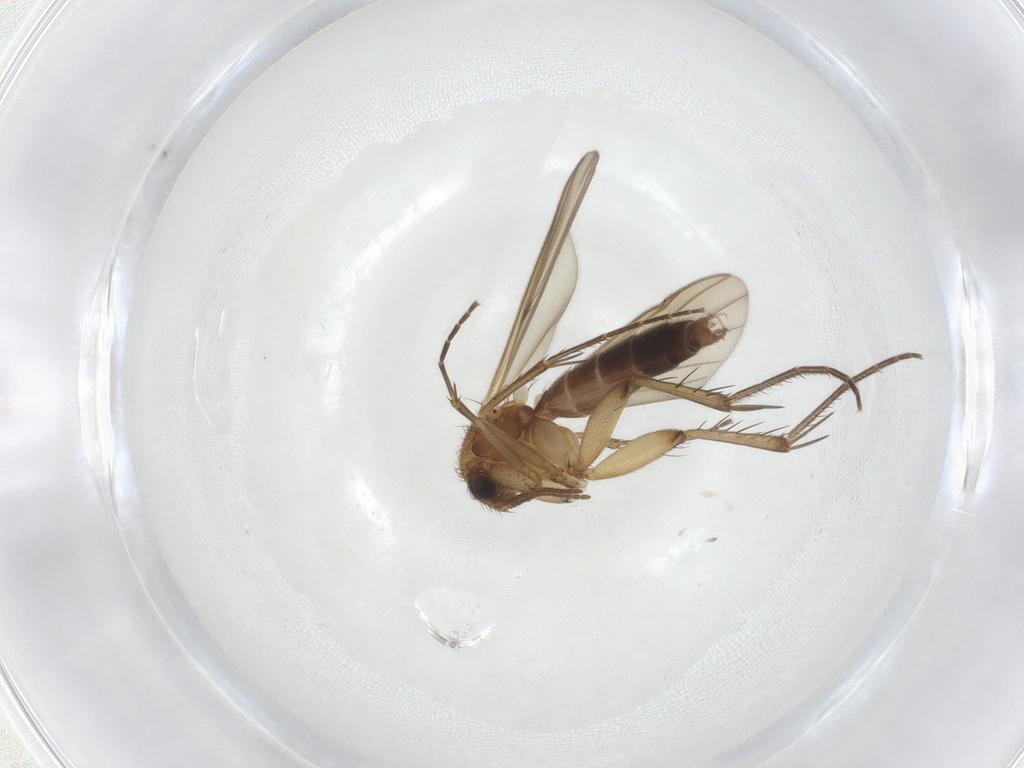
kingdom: Animalia
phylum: Arthropoda
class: Insecta
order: Diptera
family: Mycetophilidae
